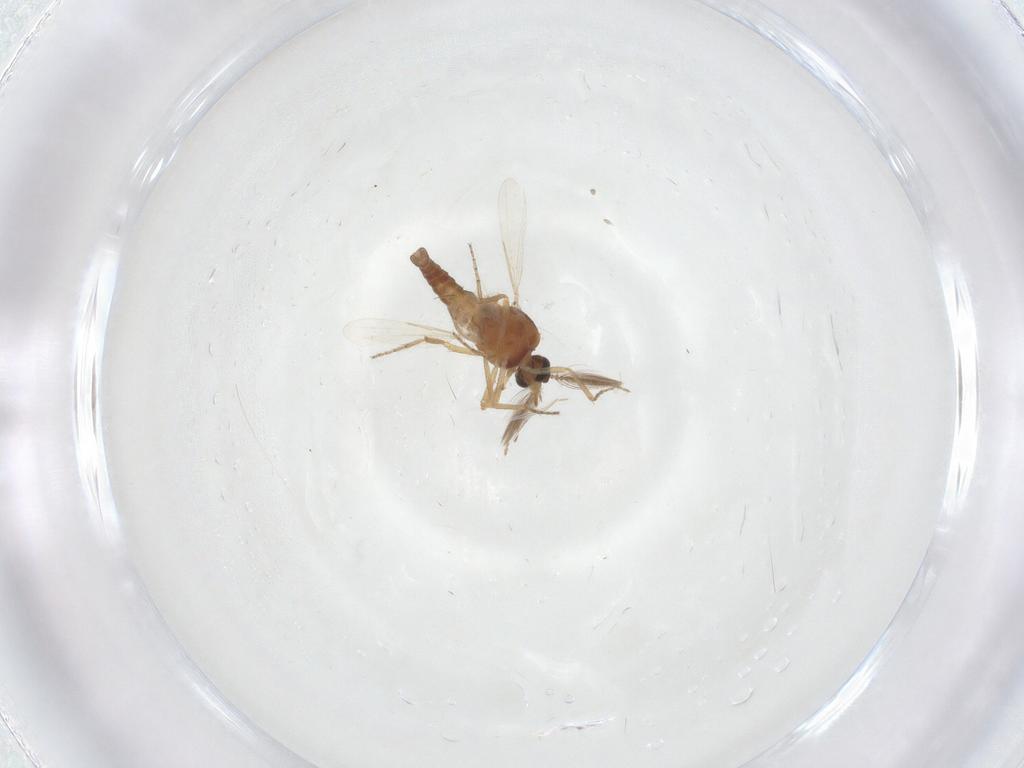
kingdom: Animalia
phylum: Arthropoda
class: Insecta
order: Diptera
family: Ceratopogonidae
